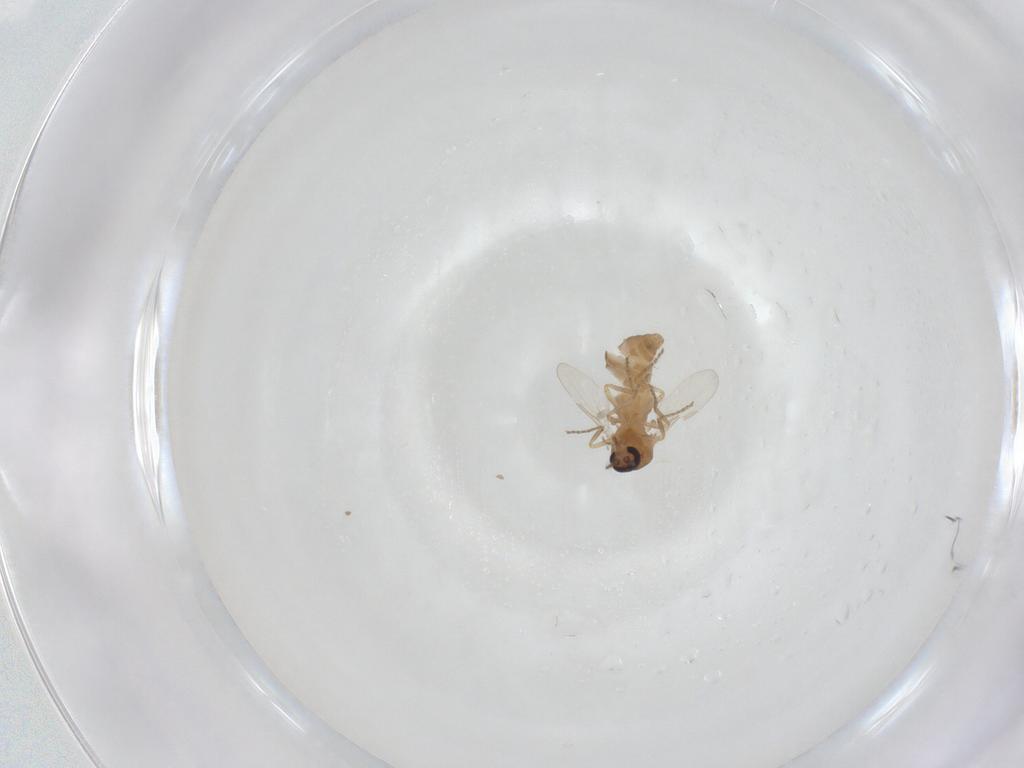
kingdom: Animalia
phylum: Arthropoda
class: Insecta
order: Diptera
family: Ceratopogonidae
